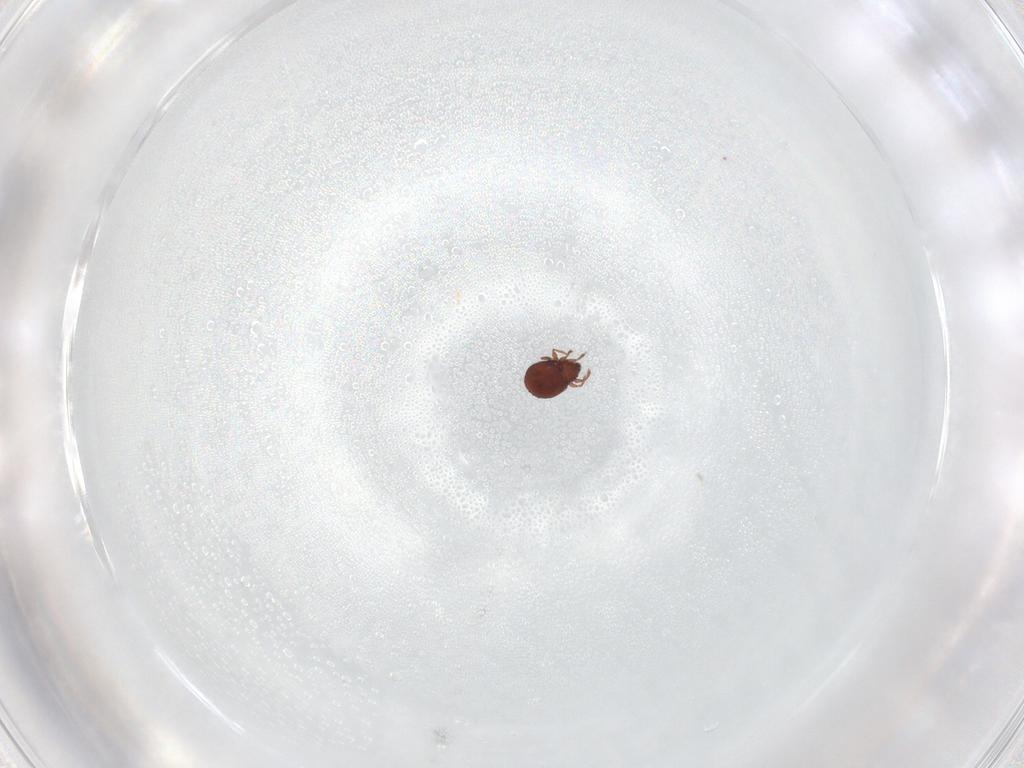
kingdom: Animalia
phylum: Arthropoda
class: Arachnida
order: Sarcoptiformes
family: Scheloribatidae
